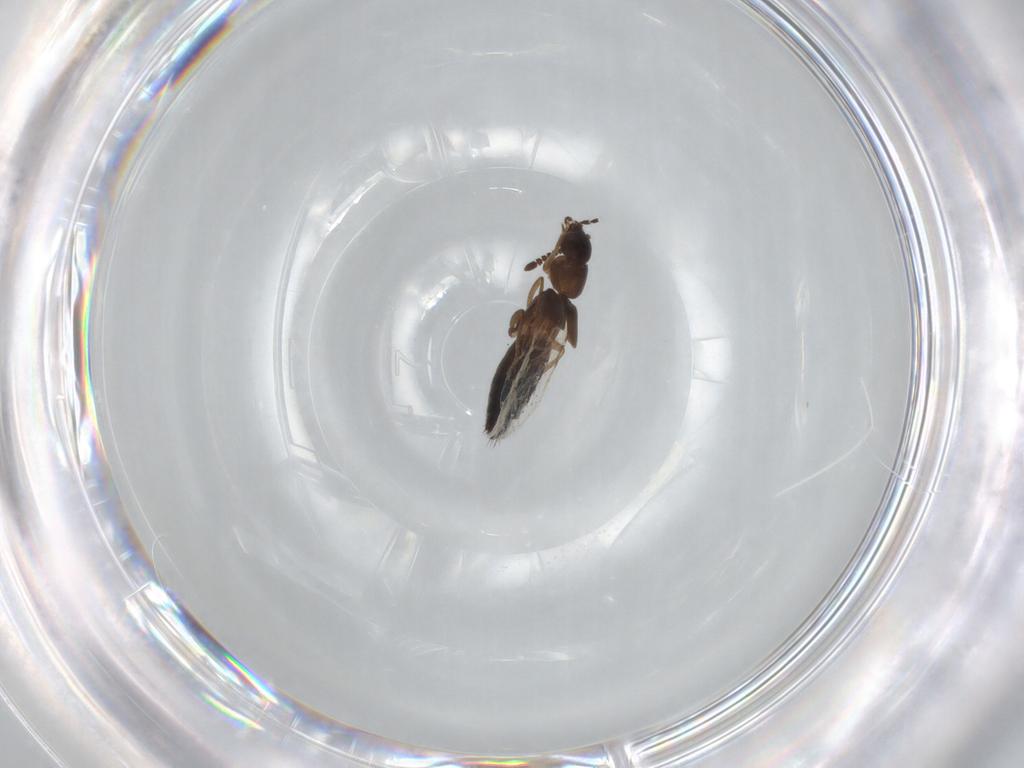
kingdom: Animalia
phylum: Arthropoda
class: Insecta
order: Coleoptera
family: Staphylinidae
